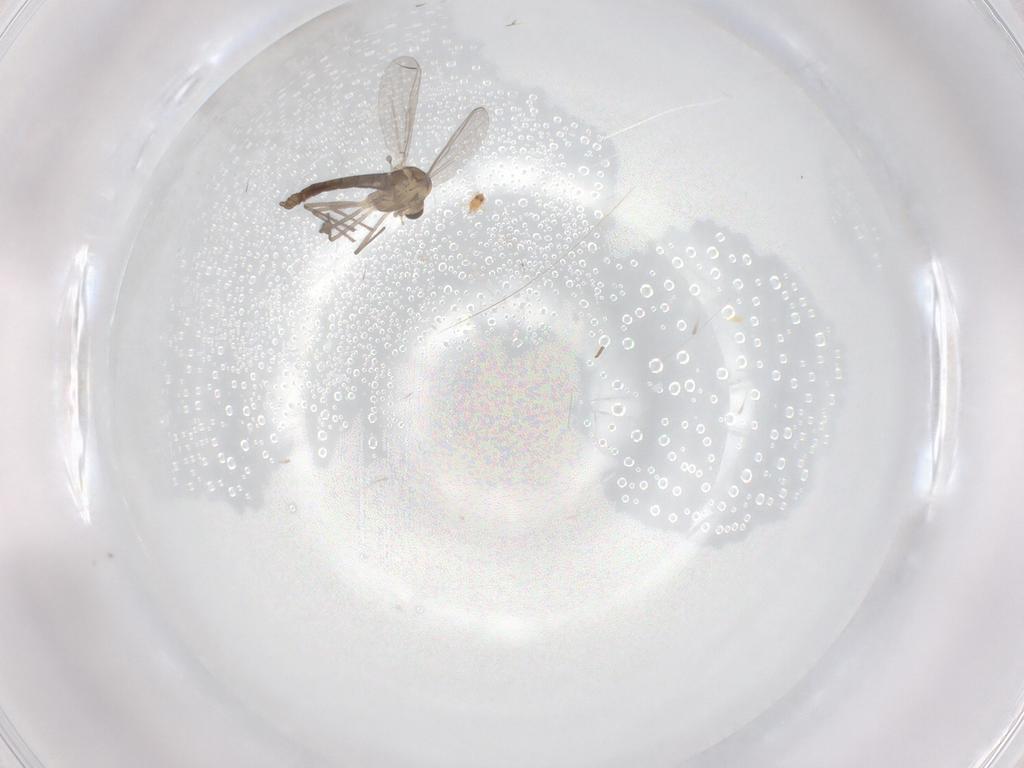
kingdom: Animalia
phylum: Arthropoda
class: Insecta
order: Diptera
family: Chironomidae
